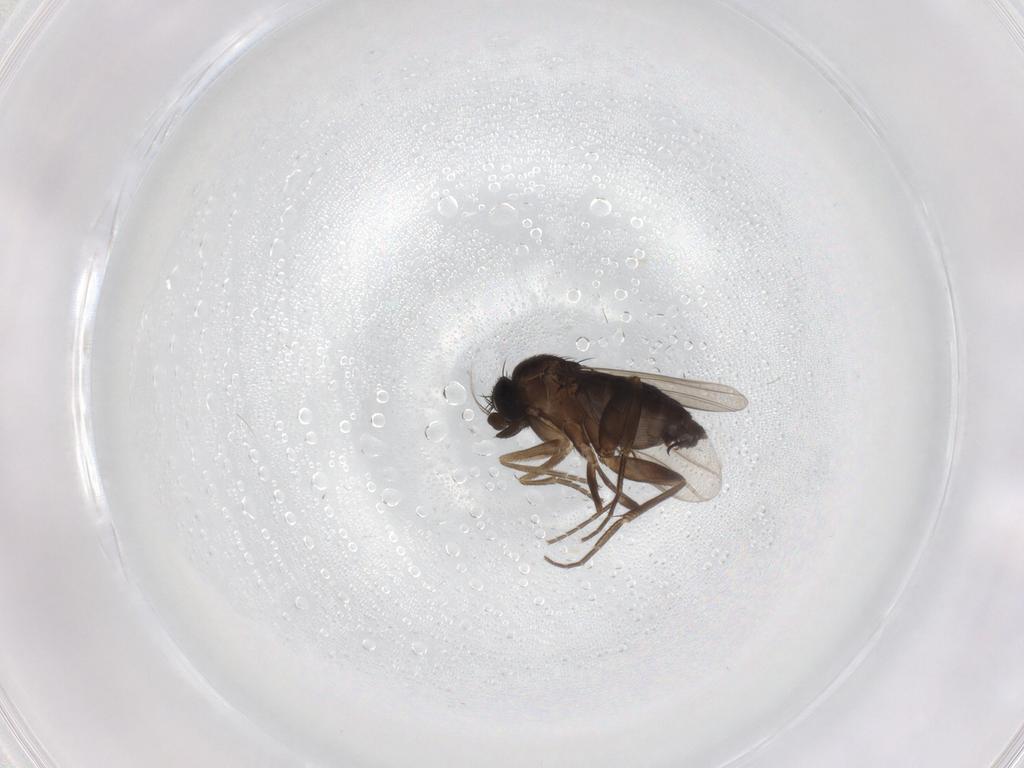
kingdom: Animalia
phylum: Arthropoda
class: Insecta
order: Diptera
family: Phoridae
